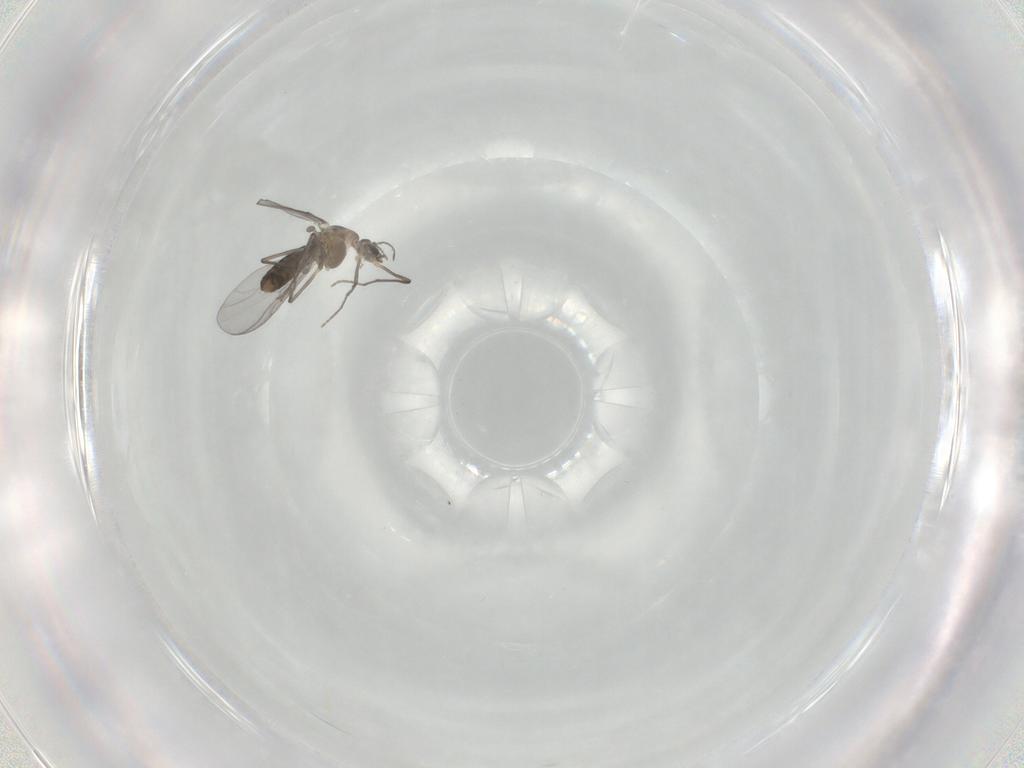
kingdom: Animalia
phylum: Arthropoda
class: Insecta
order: Diptera
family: Chironomidae
